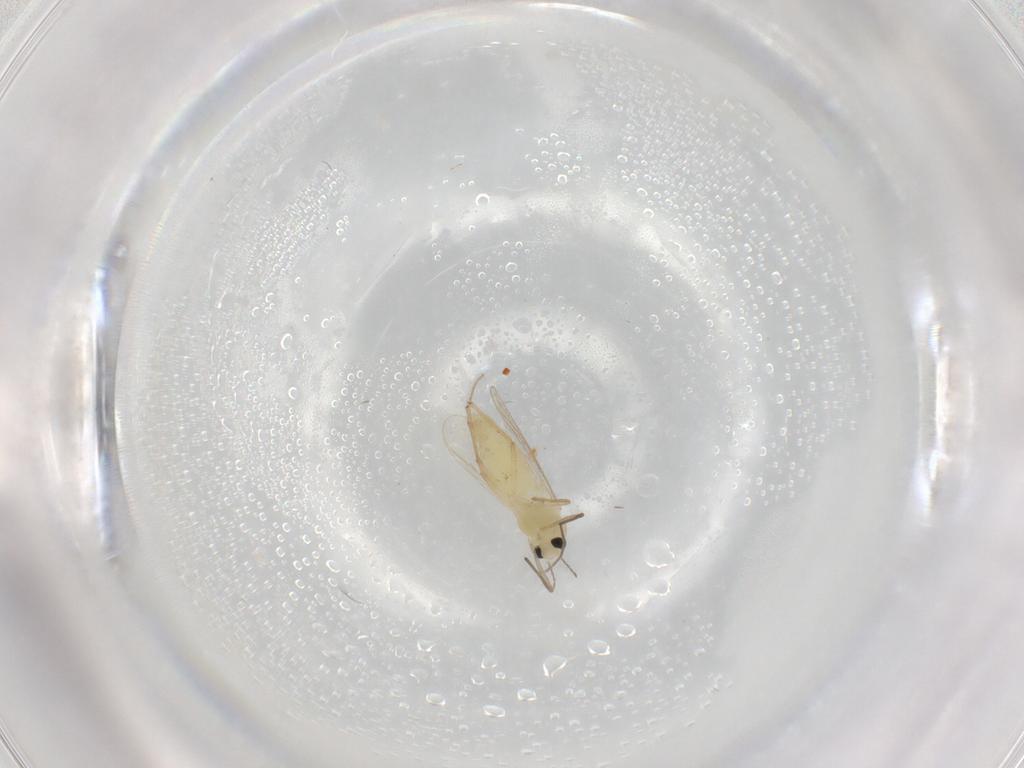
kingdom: Animalia
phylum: Arthropoda
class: Insecta
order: Diptera
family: Chironomidae
